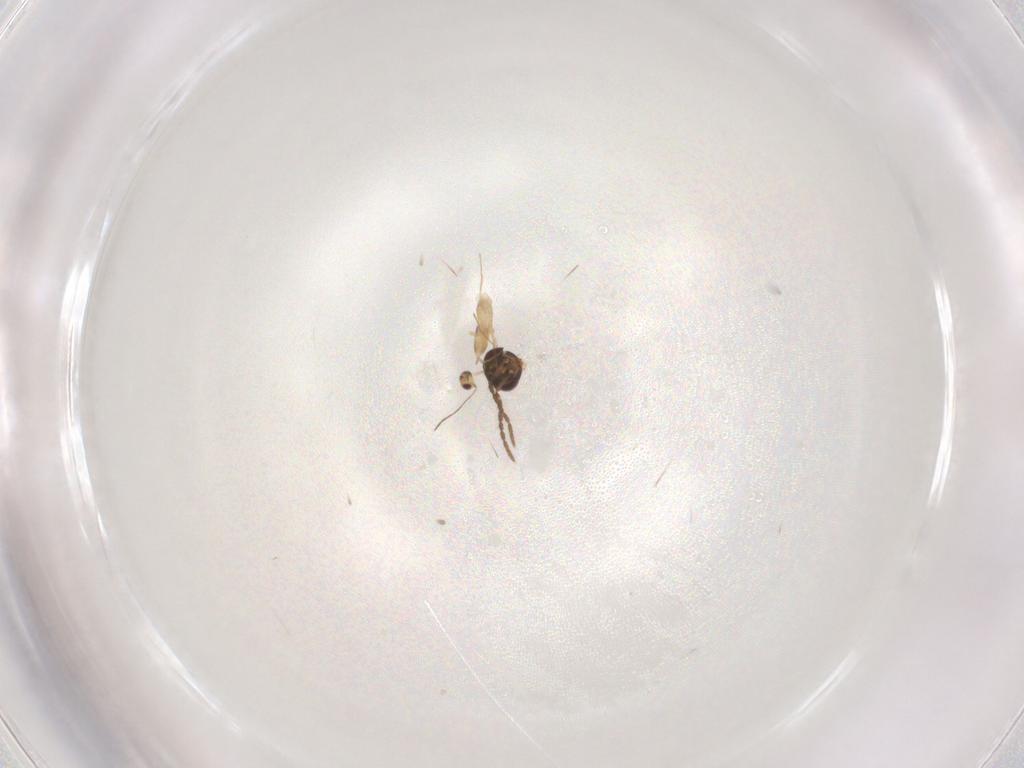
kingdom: Animalia
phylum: Arthropoda
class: Insecta
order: Hymenoptera
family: Mymaridae
